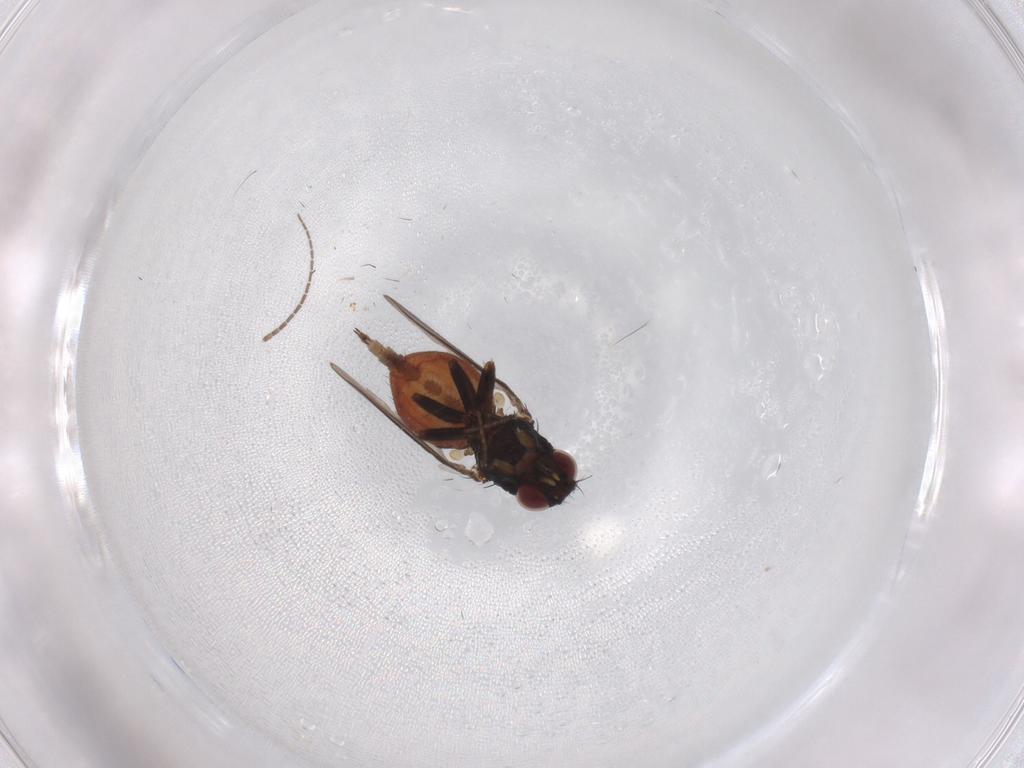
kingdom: Animalia
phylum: Arthropoda
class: Insecta
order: Diptera
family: Milichiidae
